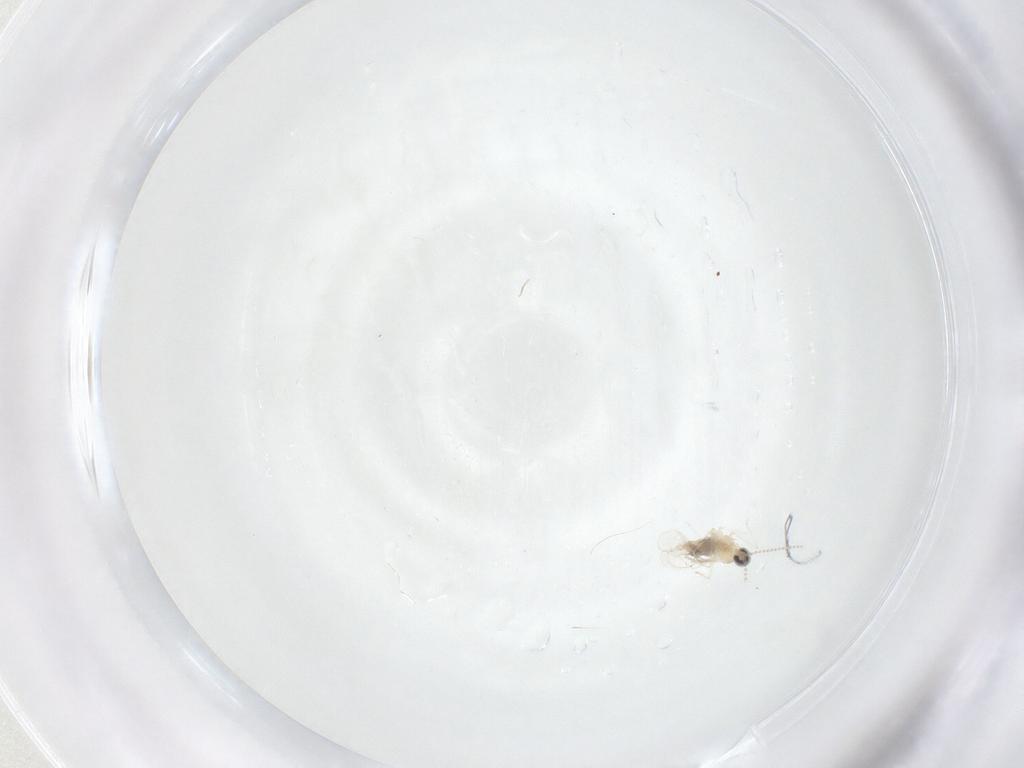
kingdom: Animalia
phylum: Arthropoda
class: Insecta
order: Diptera
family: Cecidomyiidae
